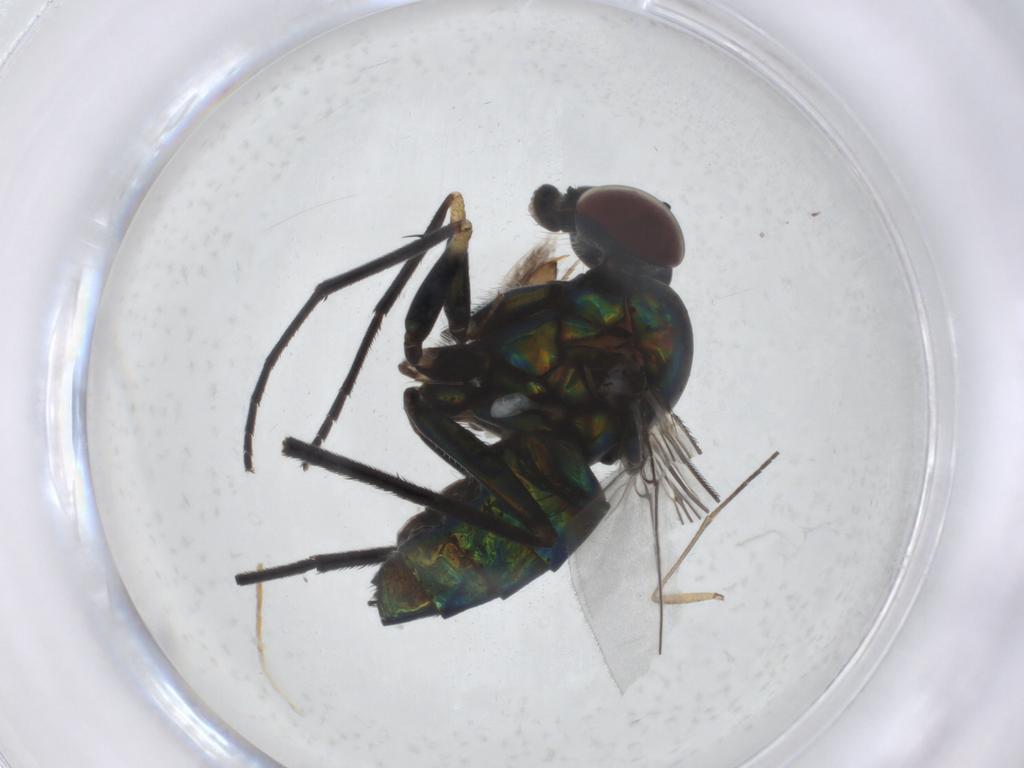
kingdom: Animalia
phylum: Arthropoda
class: Insecta
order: Diptera
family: Dolichopodidae
